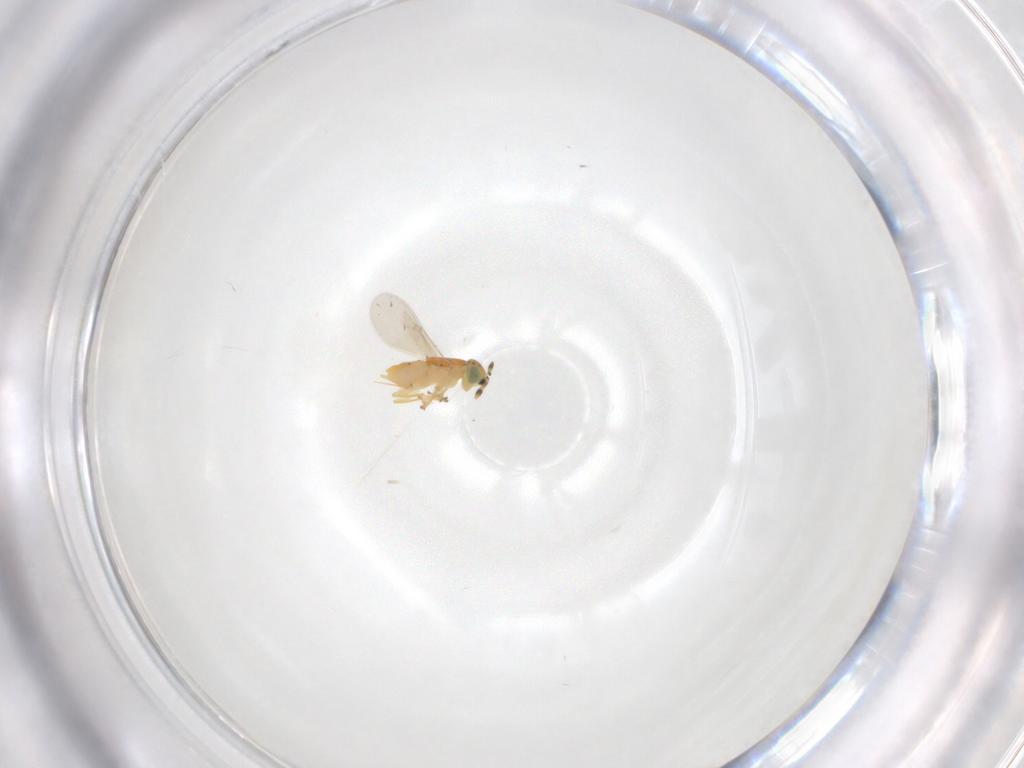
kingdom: Animalia
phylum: Arthropoda
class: Insecta
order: Hymenoptera
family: Encyrtidae
